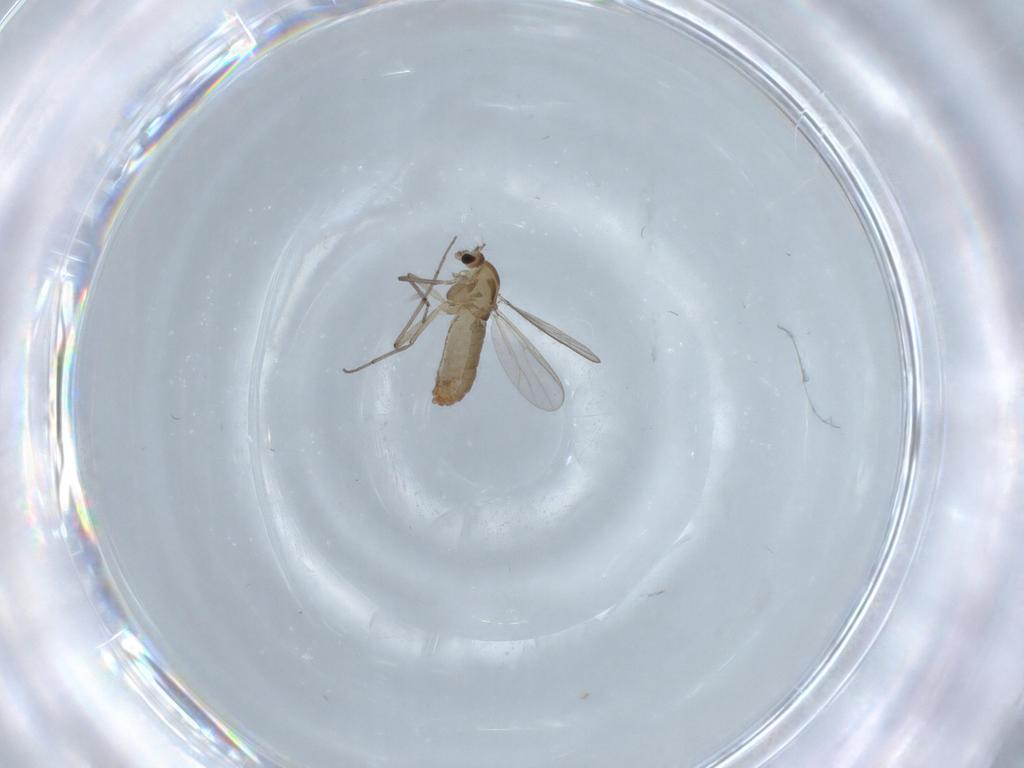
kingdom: Animalia
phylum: Arthropoda
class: Insecta
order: Diptera
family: Chironomidae
